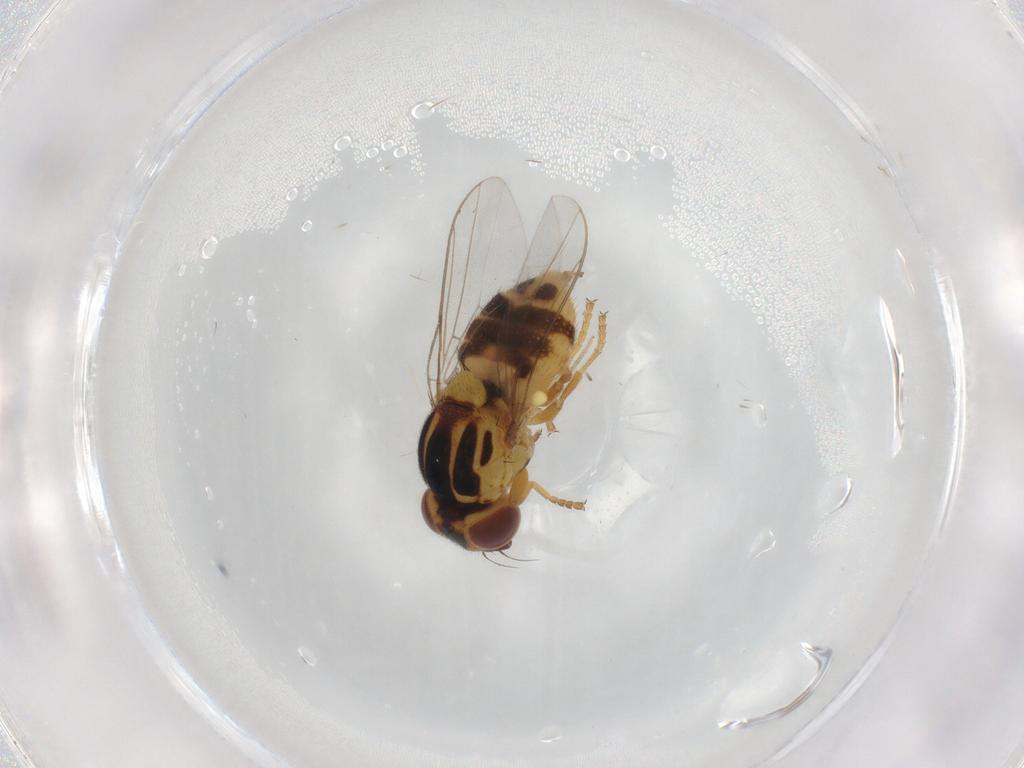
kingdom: Animalia
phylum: Arthropoda
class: Insecta
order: Diptera
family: Chloropidae
